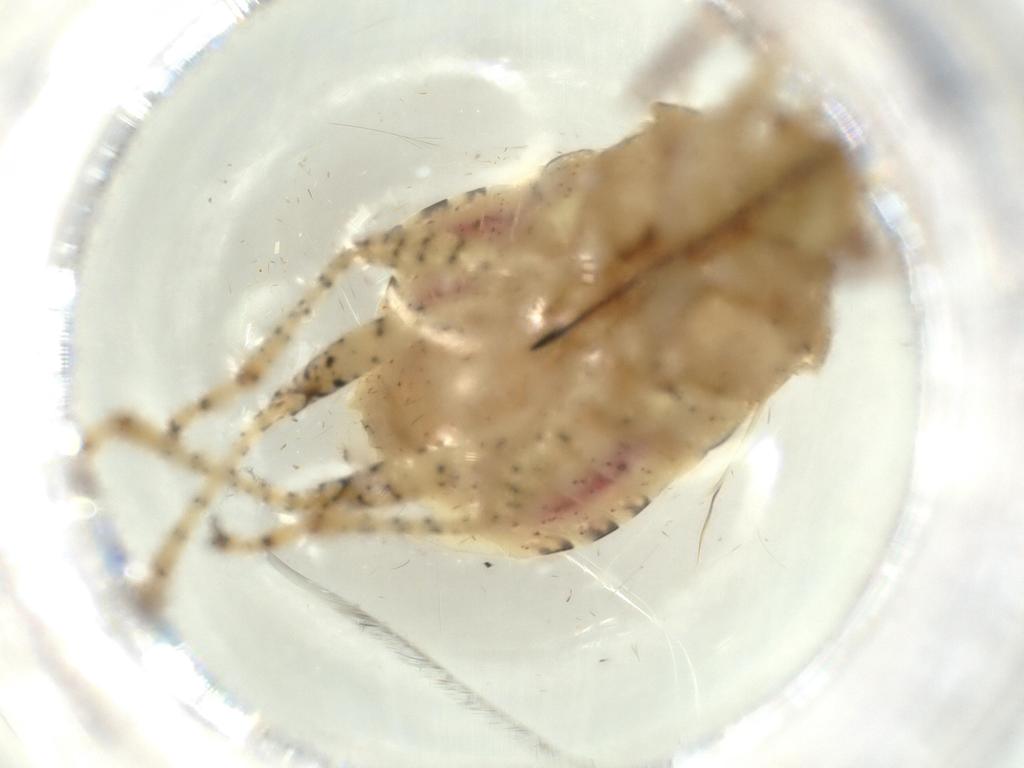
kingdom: Animalia
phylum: Arthropoda
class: Insecta
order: Hemiptera
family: Rhopalidae
